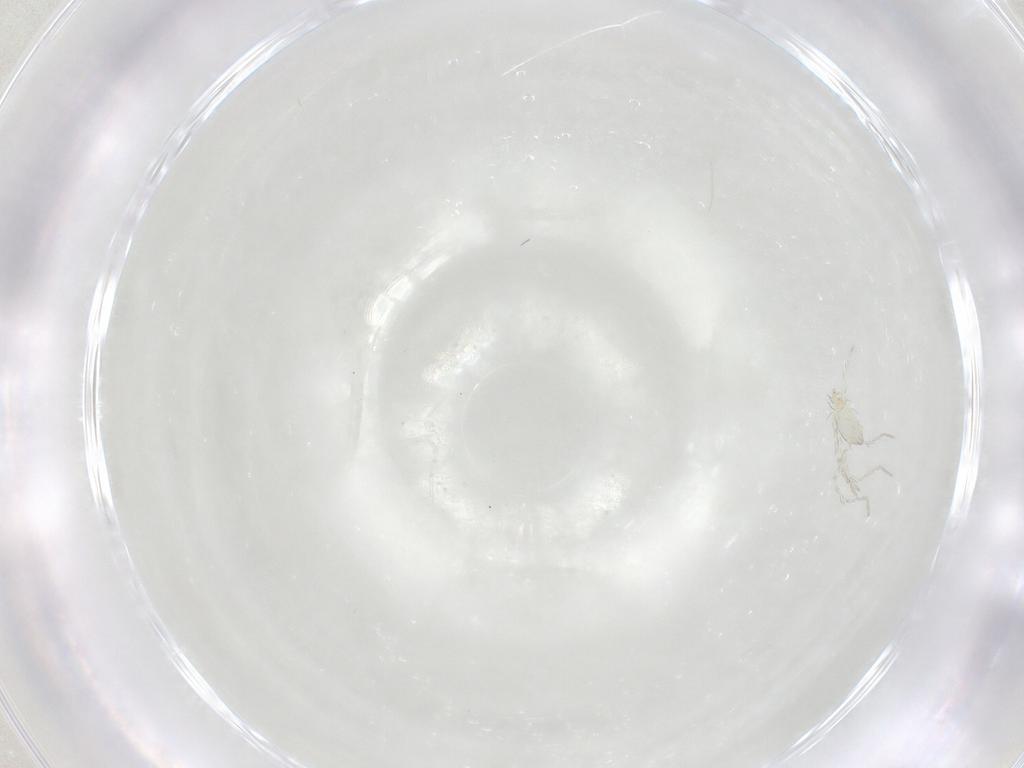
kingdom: Animalia
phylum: Arthropoda
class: Arachnida
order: Trombidiformes
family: Smarididae
